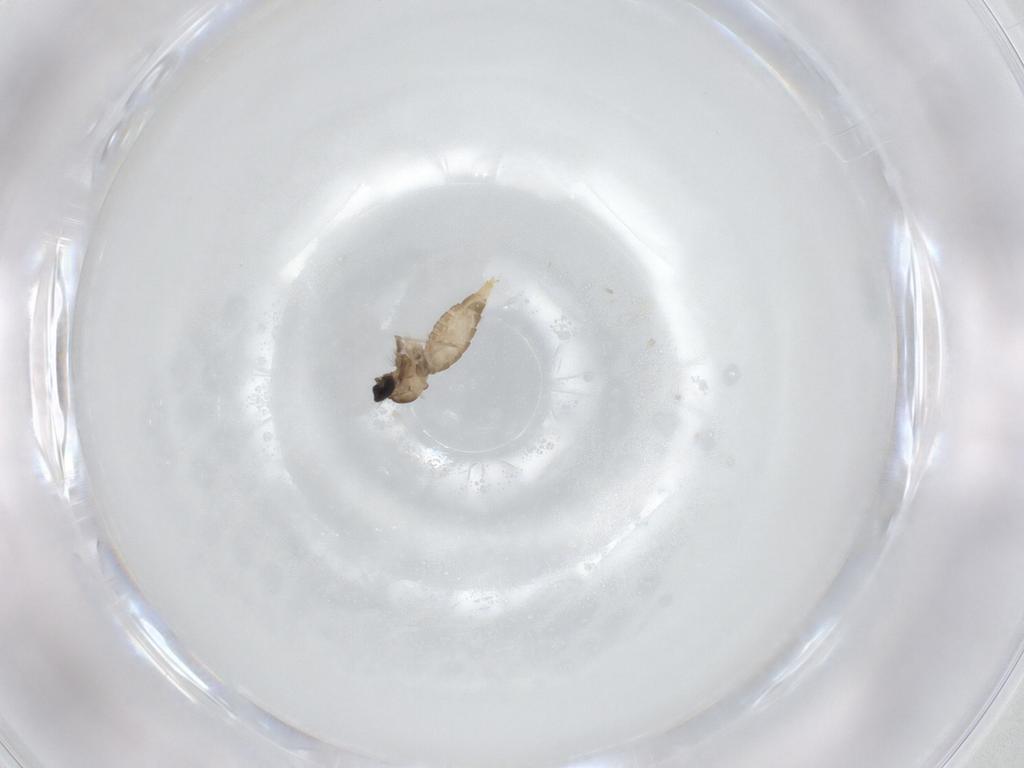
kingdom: Animalia
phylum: Arthropoda
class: Insecta
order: Diptera
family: Cecidomyiidae
